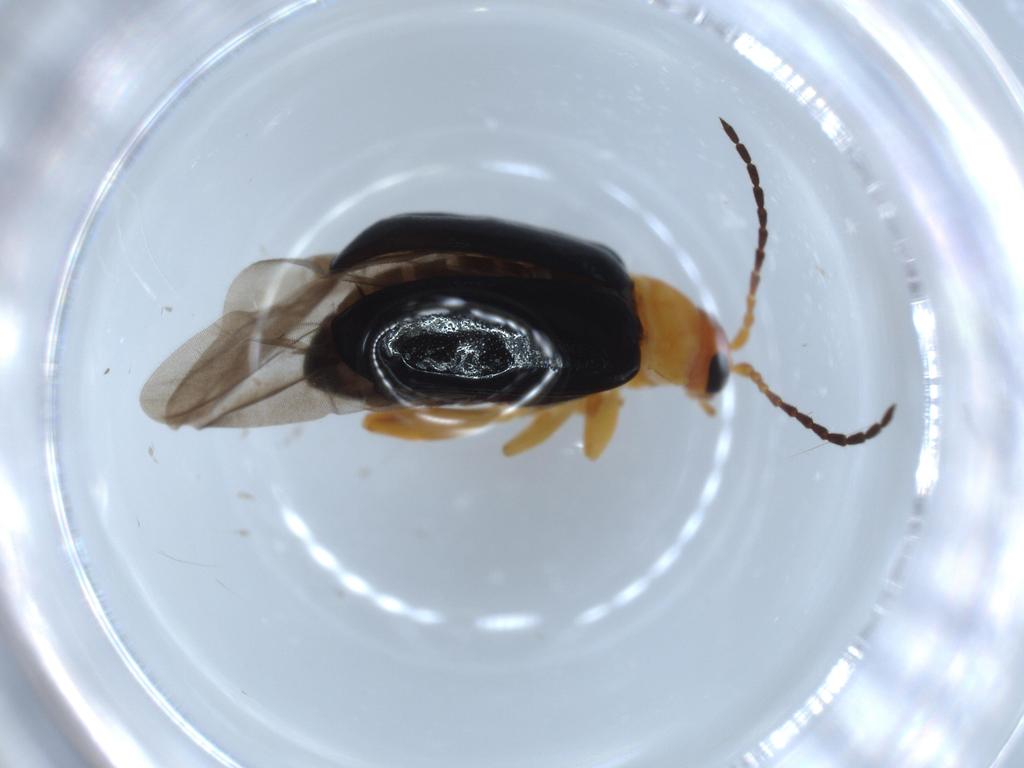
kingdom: Animalia
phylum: Arthropoda
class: Insecta
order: Coleoptera
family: Chrysomelidae
